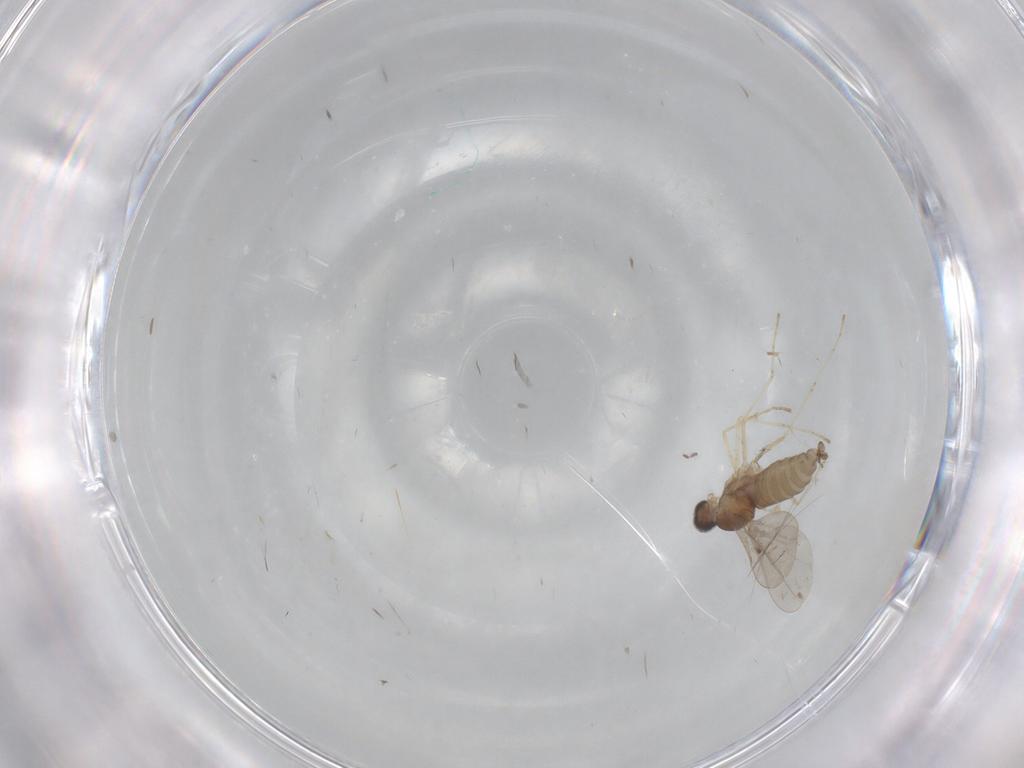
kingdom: Animalia
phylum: Arthropoda
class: Insecta
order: Diptera
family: Cecidomyiidae
